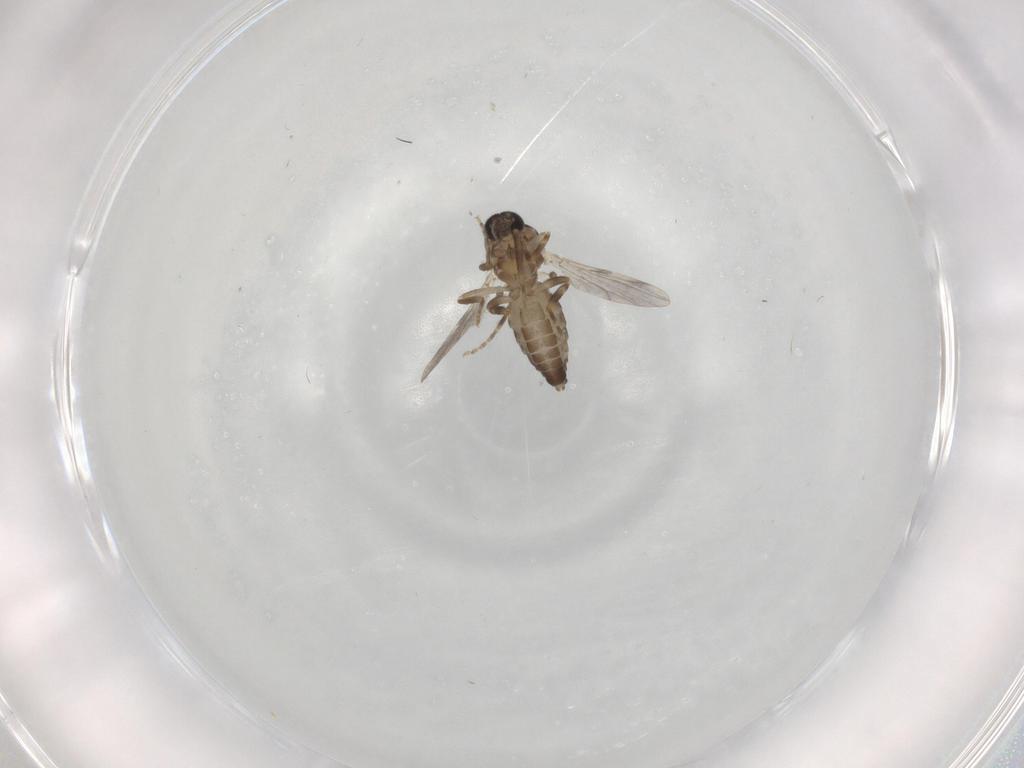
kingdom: Animalia
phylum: Arthropoda
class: Insecta
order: Diptera
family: Ceratopogonidae
